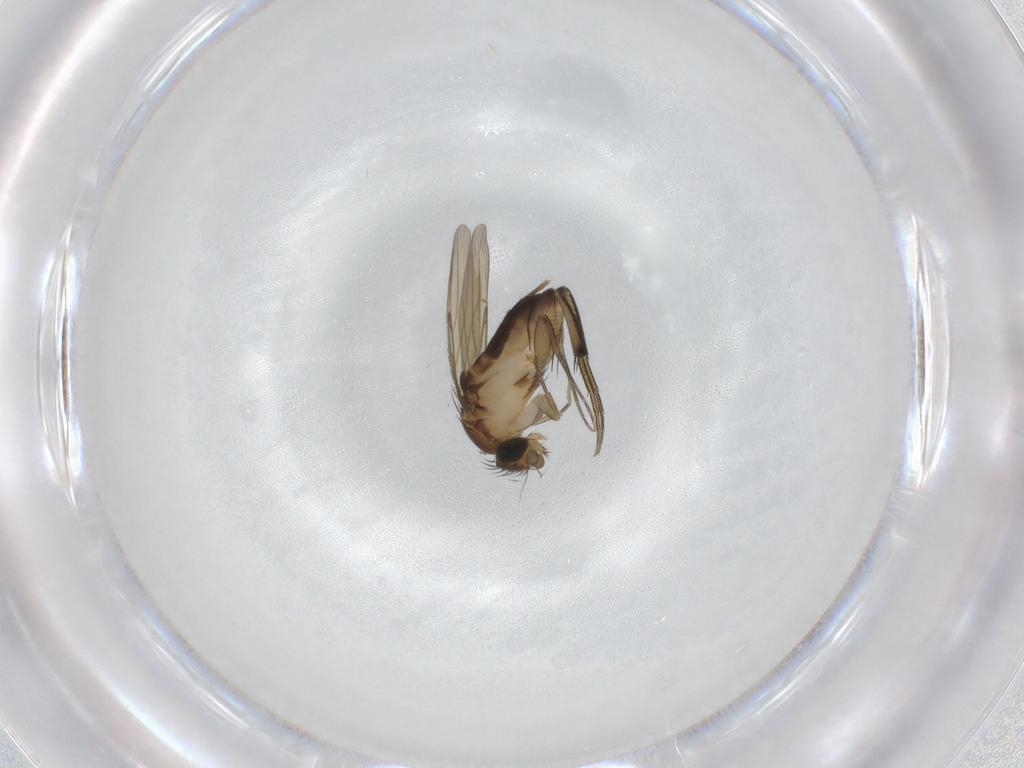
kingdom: Animalia
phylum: Arthropoda
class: Insecta
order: Diptera
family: Phoridae
